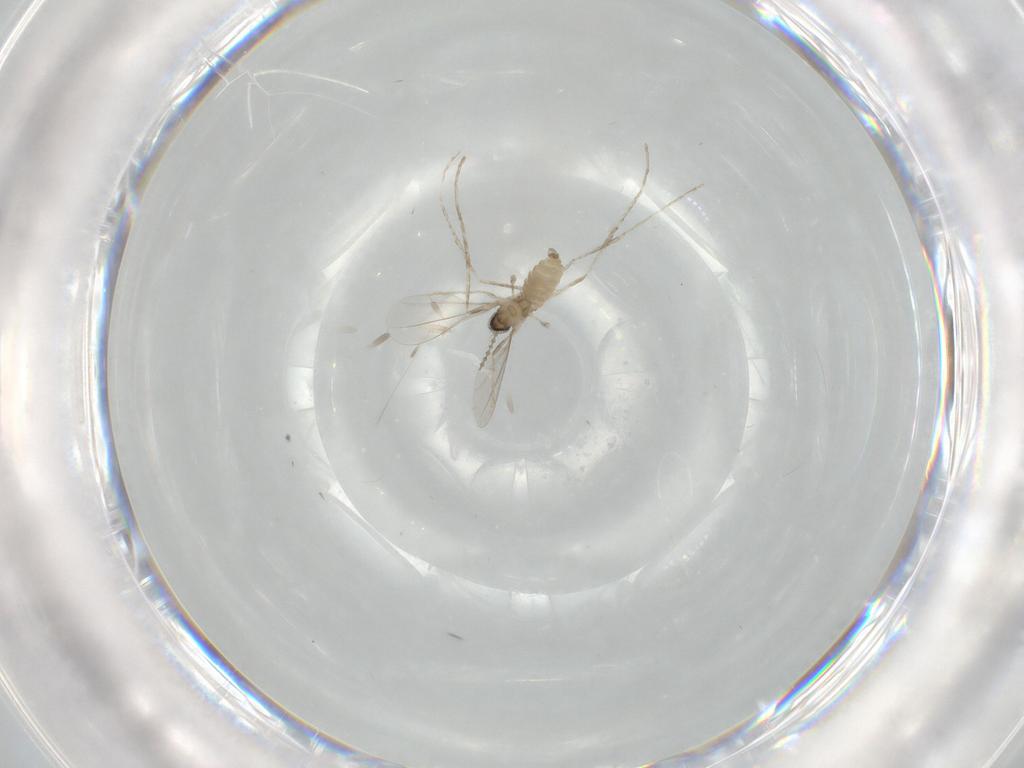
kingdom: Animalia
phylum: Arthropoda
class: Insecta
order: Diptera
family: Cecidomyiidae
